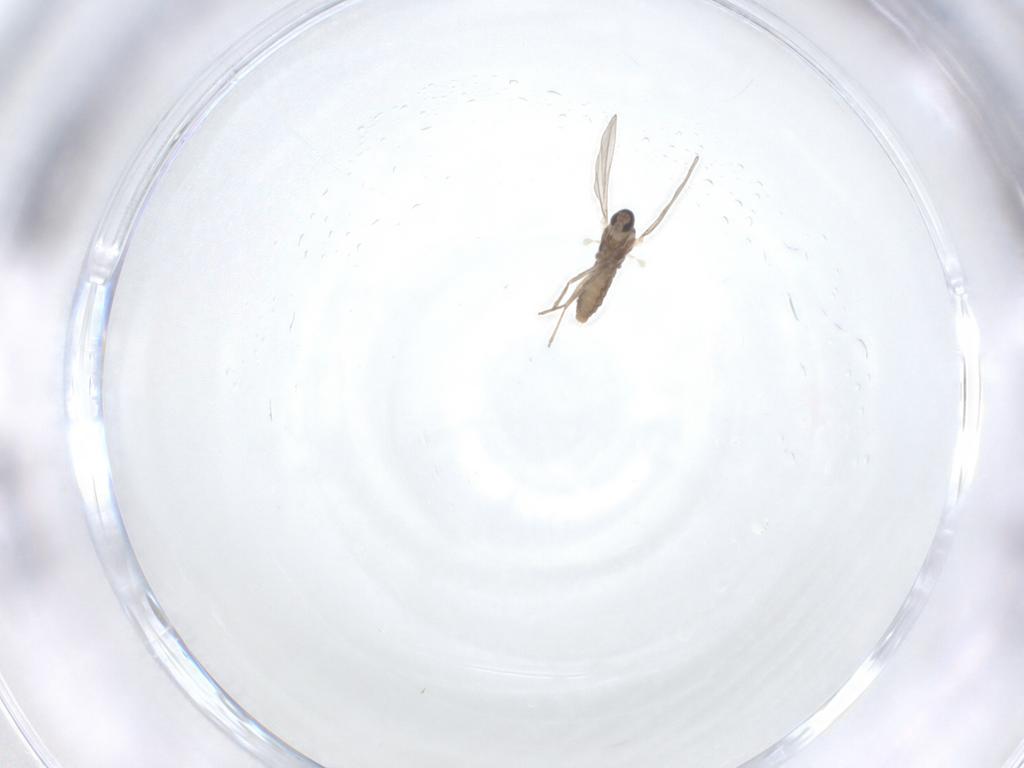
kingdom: Animalia
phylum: Arthropoda
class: Insecta
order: Diptera
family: Cecidomyiidae
